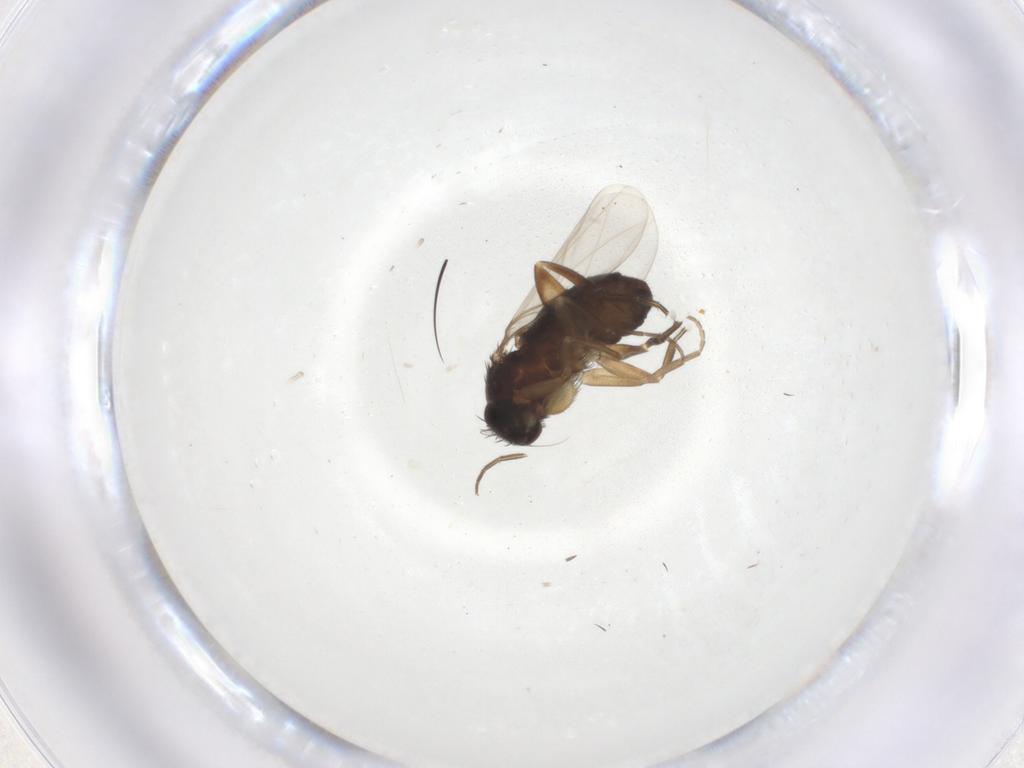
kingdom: Animalia
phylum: Arthropoda
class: Insecta
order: Diptera
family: Phoridae
